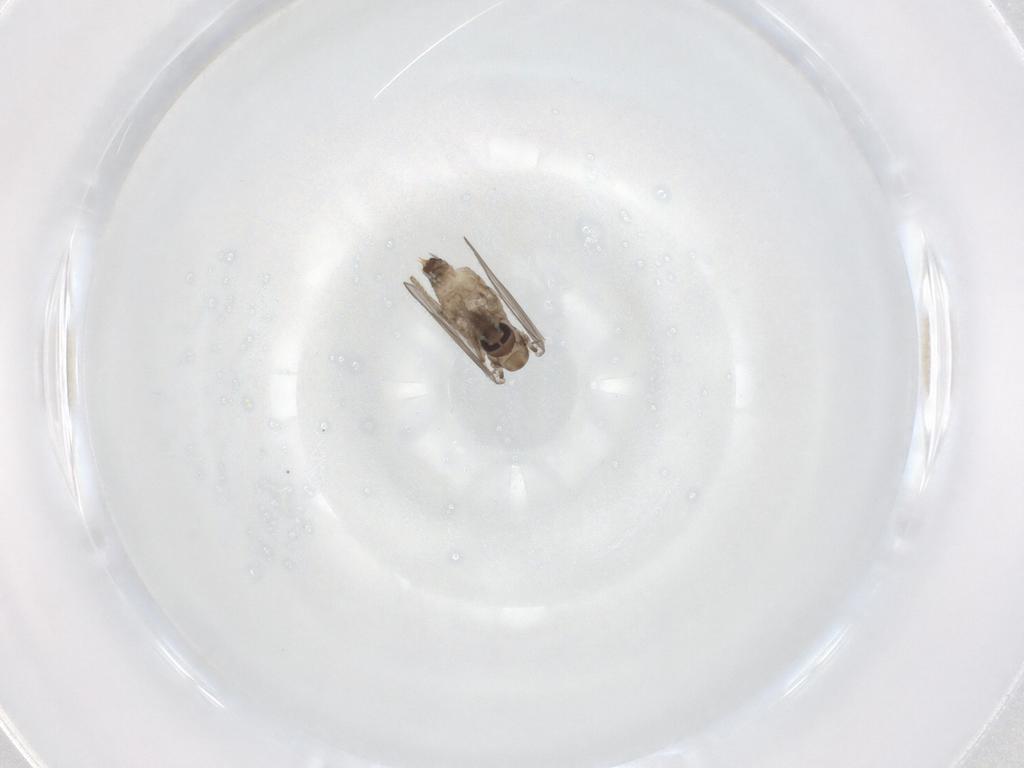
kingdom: Animalia
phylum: Arthropoda
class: Insecta
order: Diptera
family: Psychodidae
